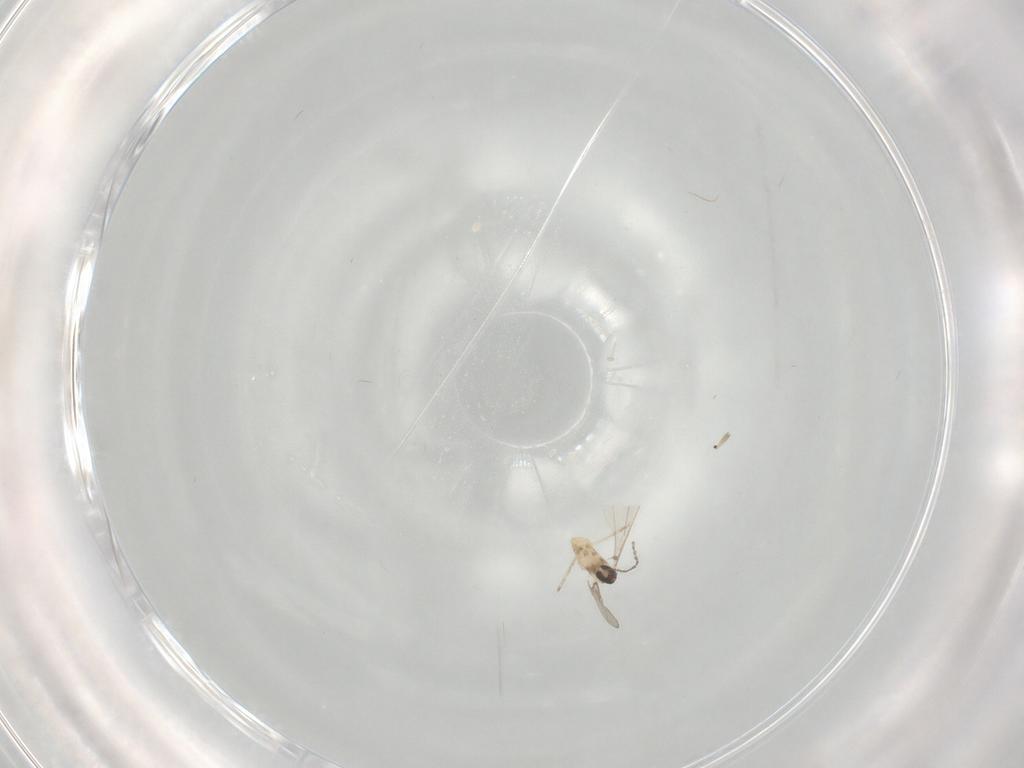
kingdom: Animalia
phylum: Arthropoda
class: Insecta
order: Diptera
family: Cecidomyiidae
